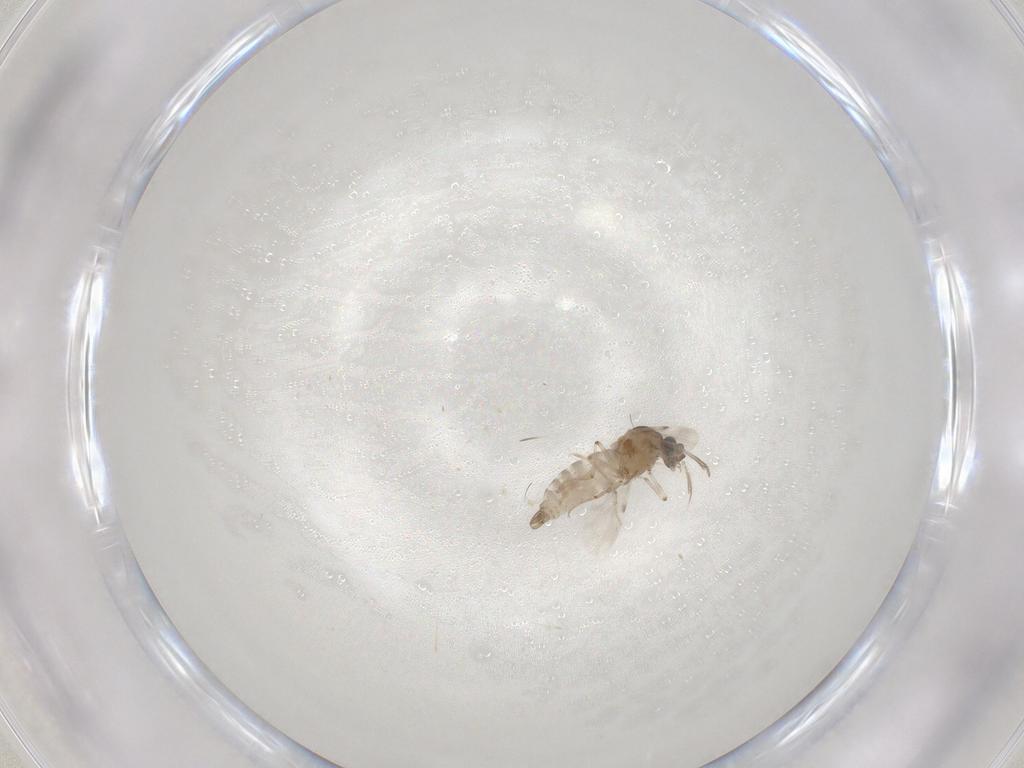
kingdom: Animalia
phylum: Arthropoda
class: Insecta
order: Diptera
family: Ceratopogonidae
